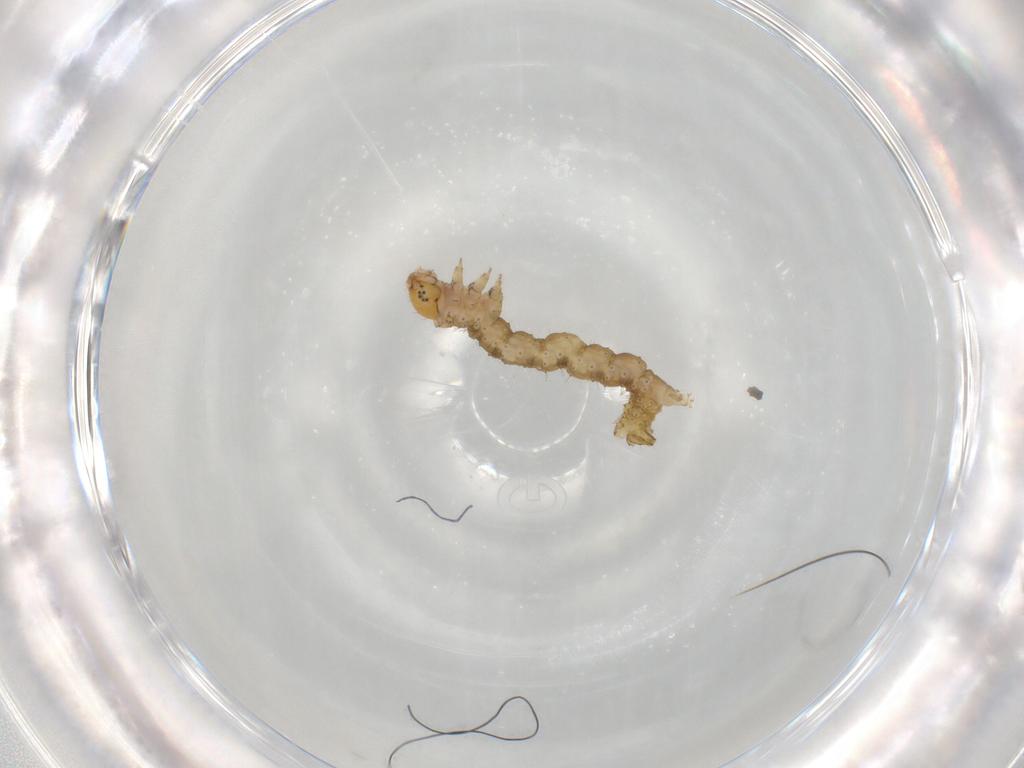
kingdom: Animalia
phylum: Arthropoda
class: Insecta
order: Lepidoptera
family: Geometridae
